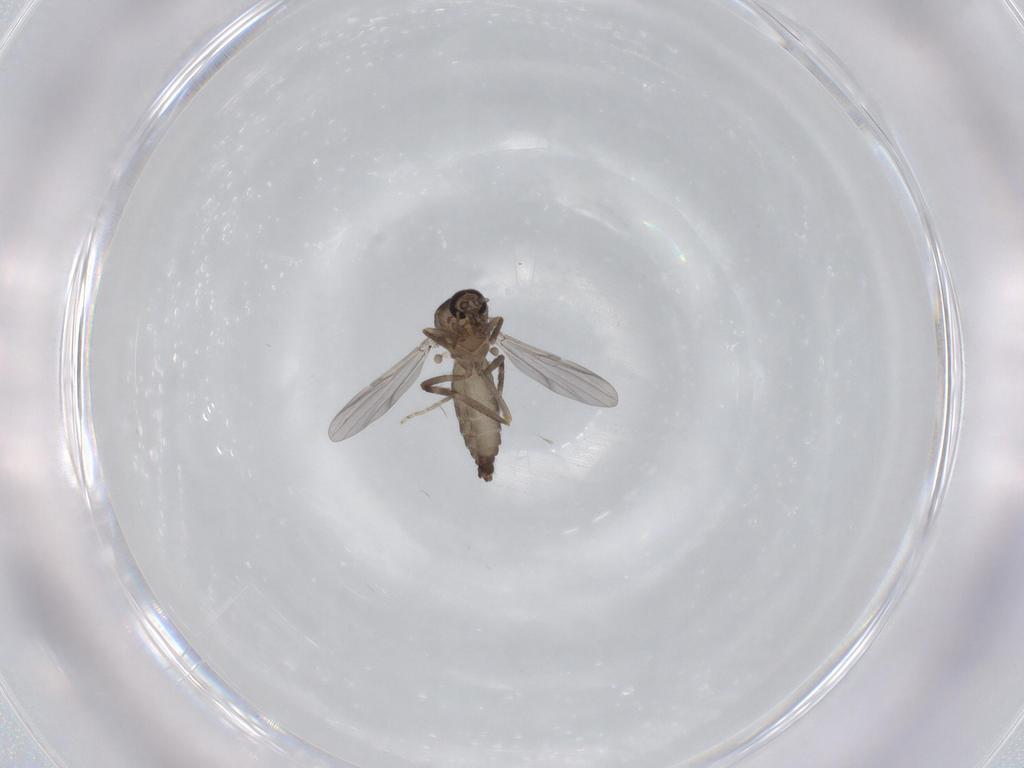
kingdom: Animalia
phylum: Arthropoda
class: Insecta
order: Diptera
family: Ceratopogonidae
